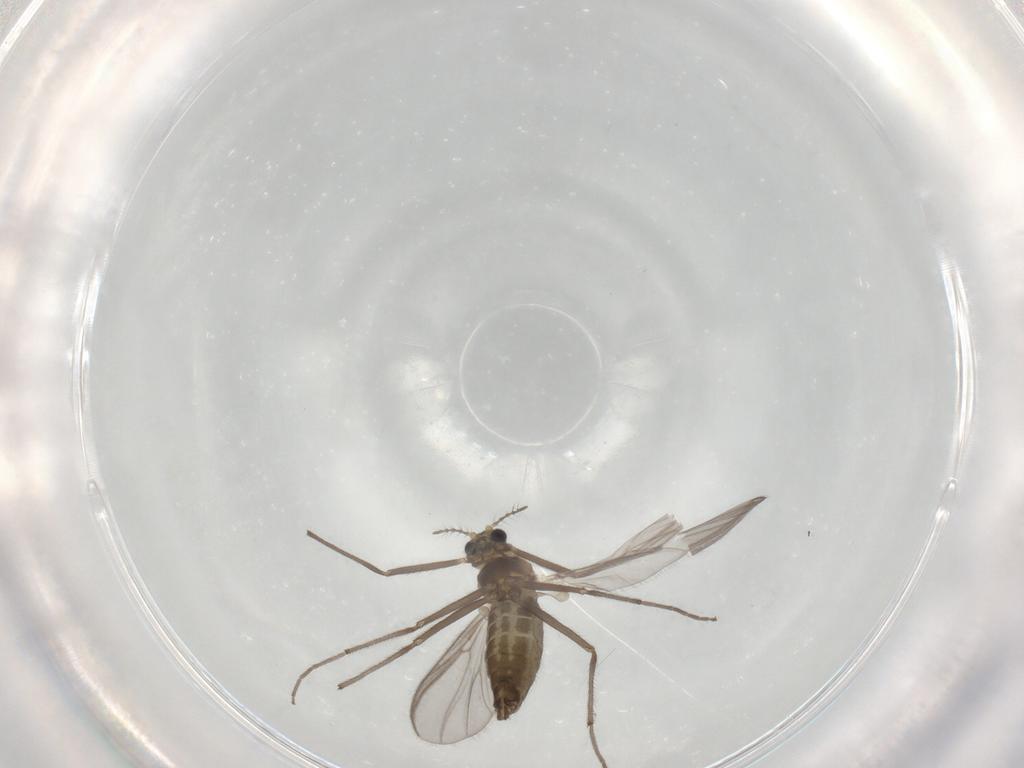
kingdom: Animalia
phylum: Arthropoda
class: Insecta
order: Diptera
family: Chironomidae
